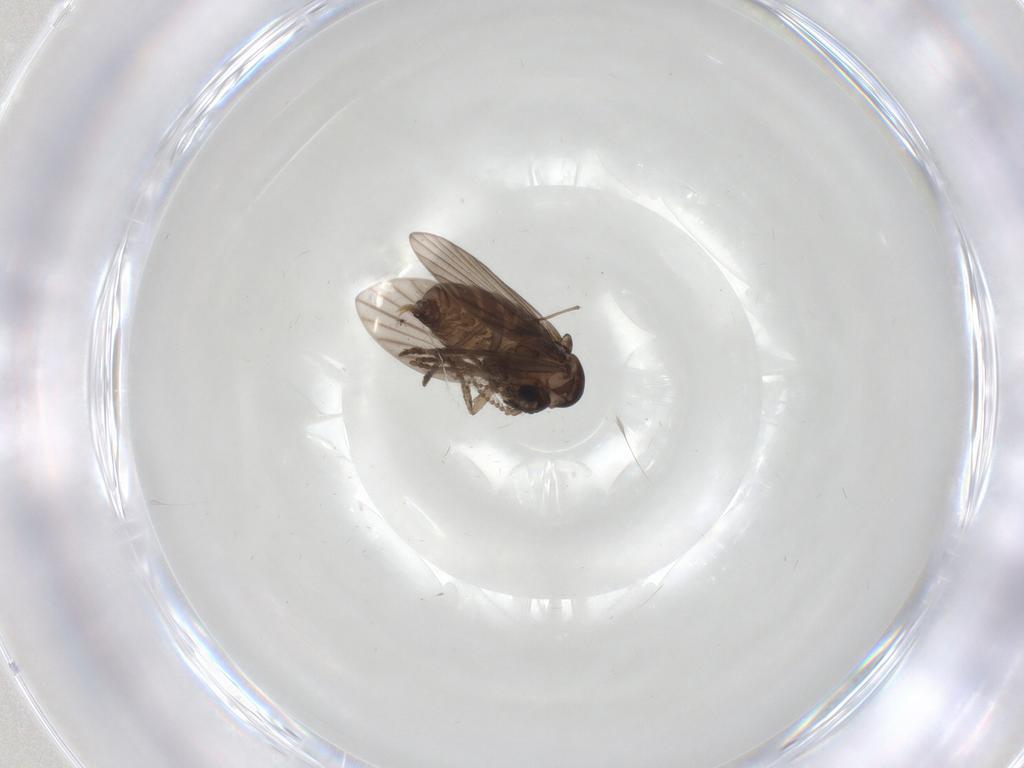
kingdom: Animalia
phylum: Arthropoda
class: Insecta
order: Diptera
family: Psychodidae
